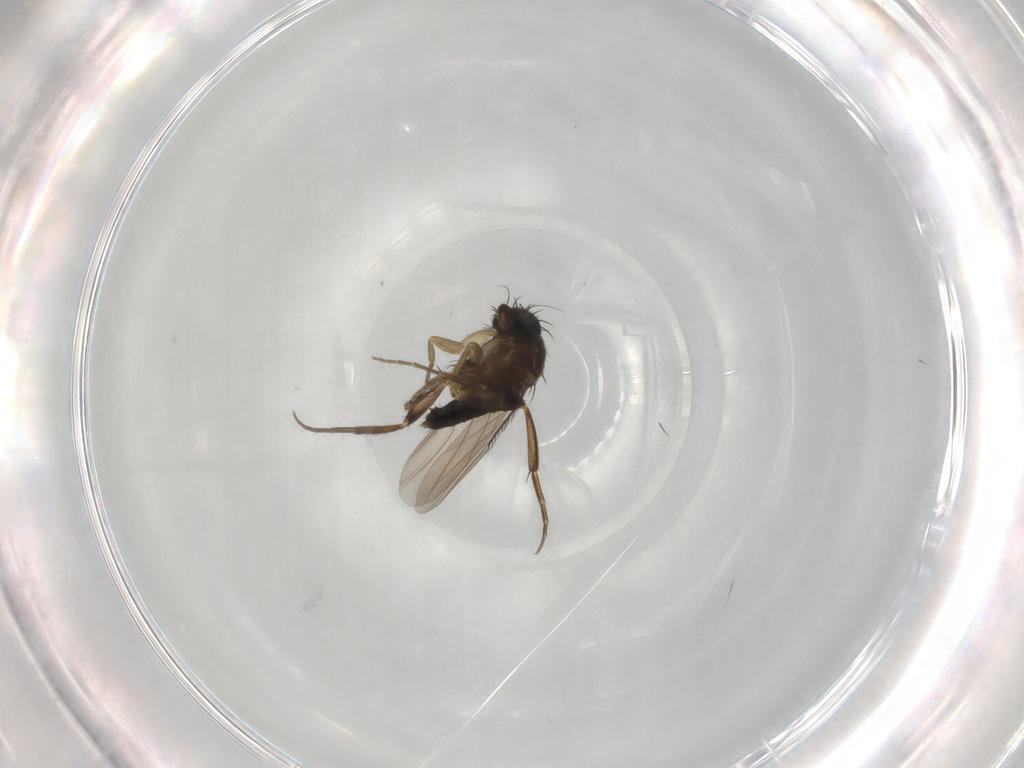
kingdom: Animalia
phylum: Arthropoda
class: Insecta
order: Diptera
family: Phoridae
